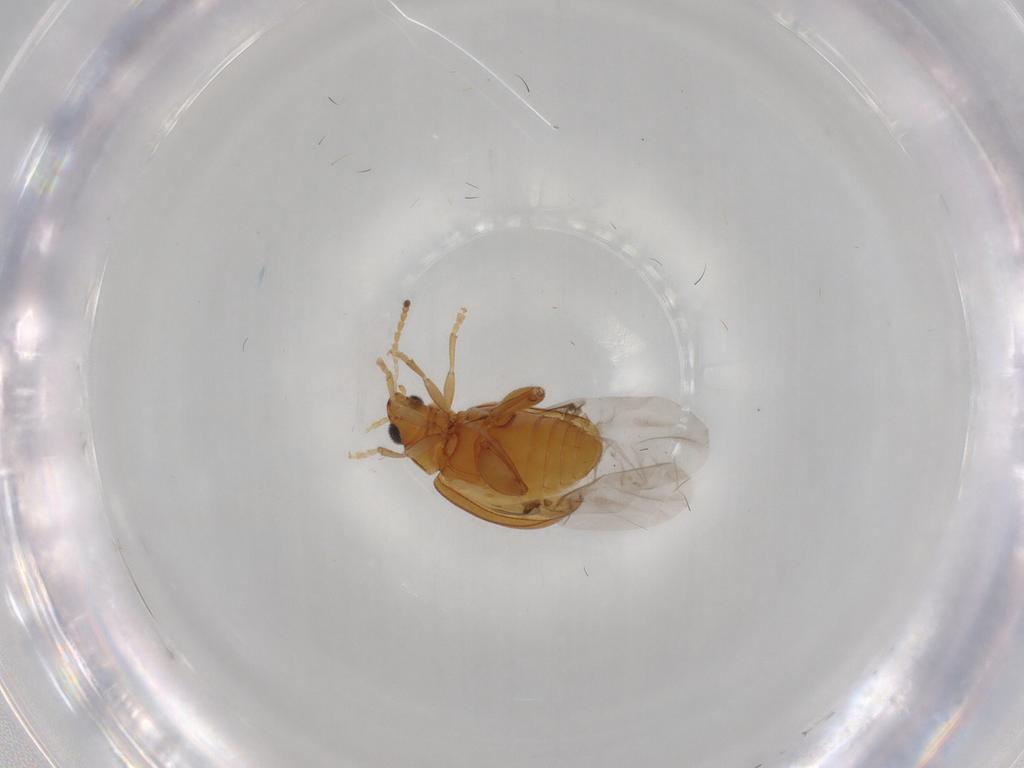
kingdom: Animalia
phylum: Arthropoda
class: Insecta
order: Coleoptera
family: Chrysomelidae
